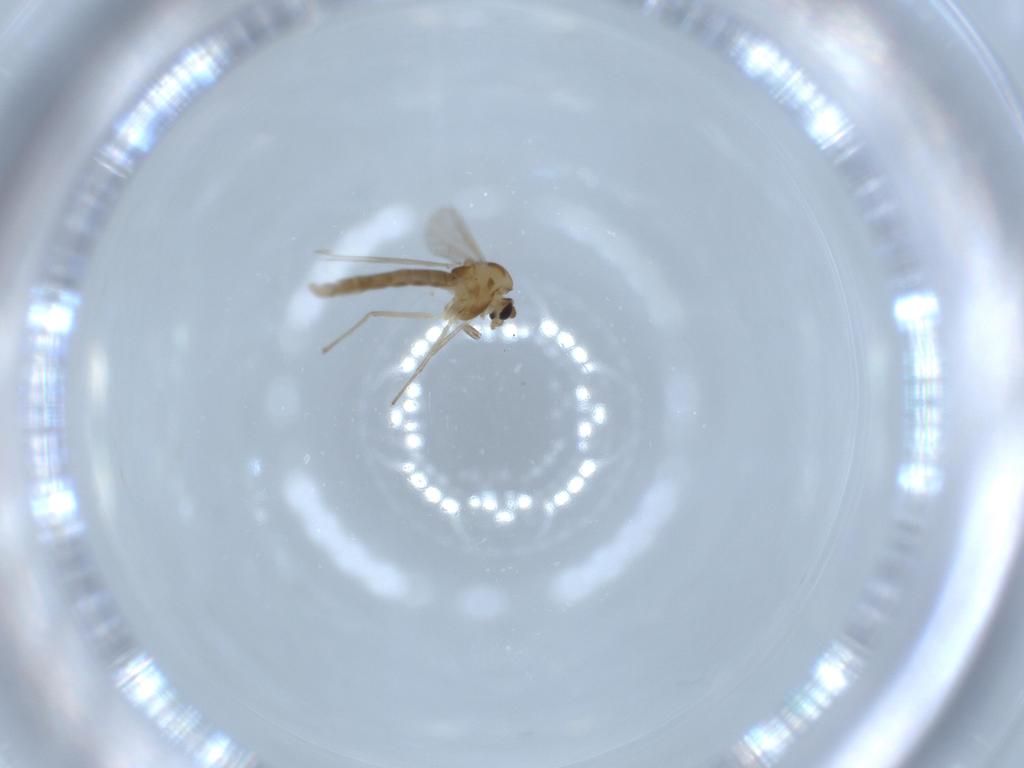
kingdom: Animalia
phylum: Arthropoda
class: Insecta
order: Diptera
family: Chironomidae
